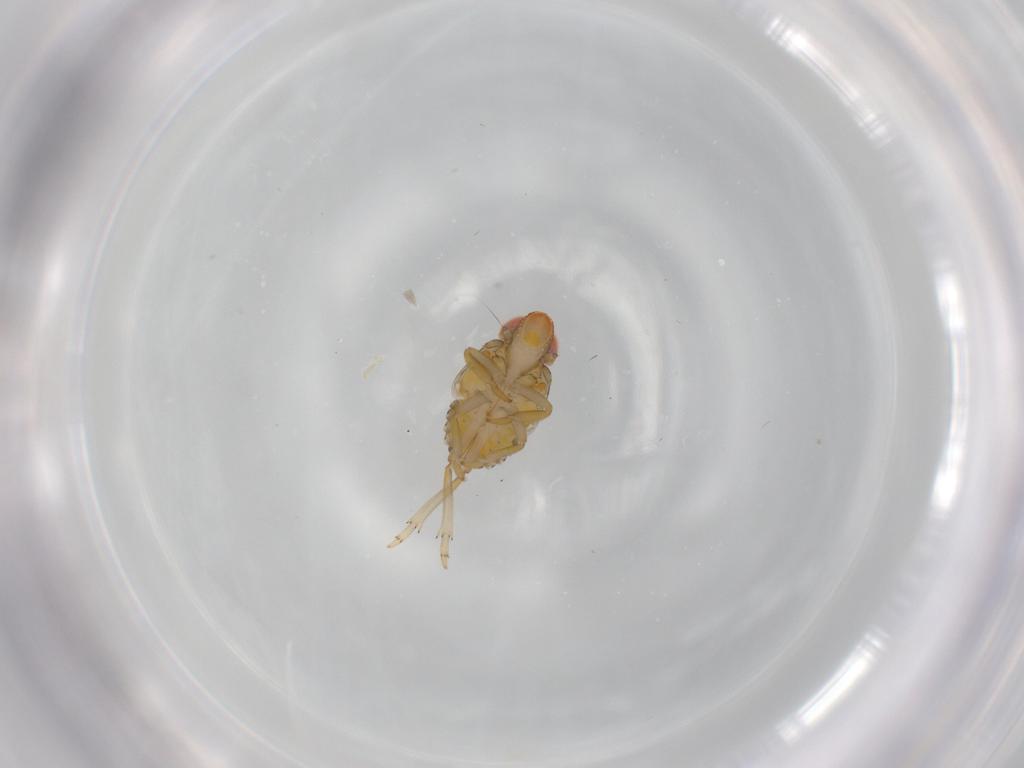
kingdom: Animalia
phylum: Arthropoda
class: Insecta
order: Hemiptera
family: Fulgoroidea_incertae_sedis
